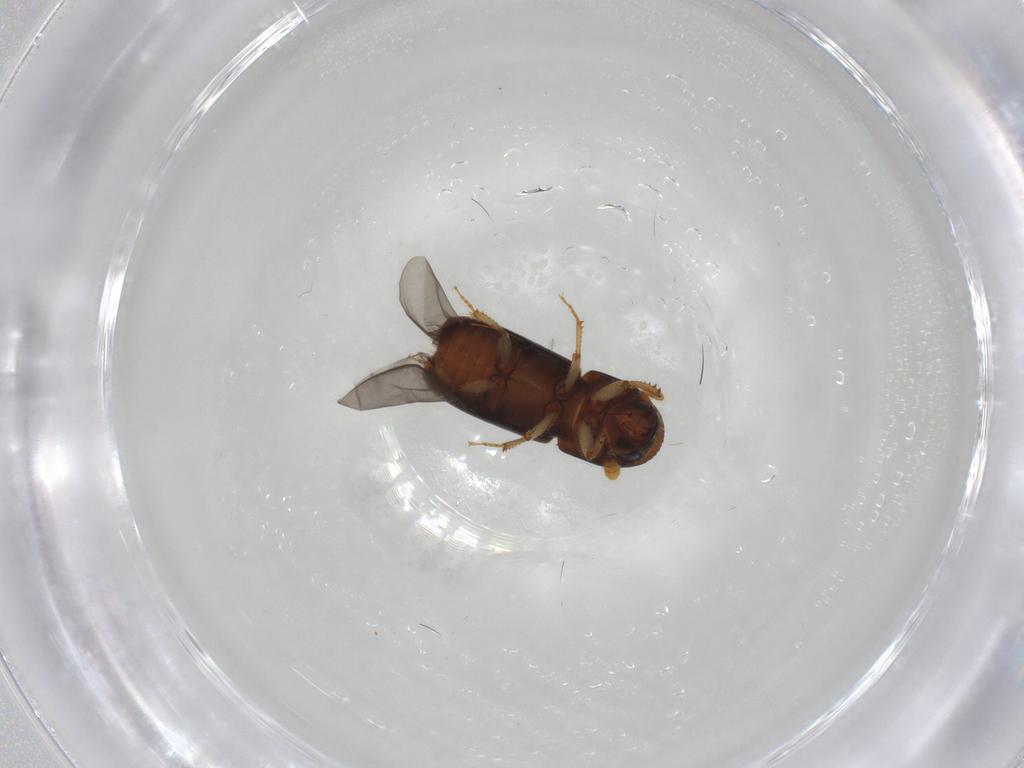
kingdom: Animalia
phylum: Arthropoda
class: Insecta
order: Coleoptera
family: Curculionidae
